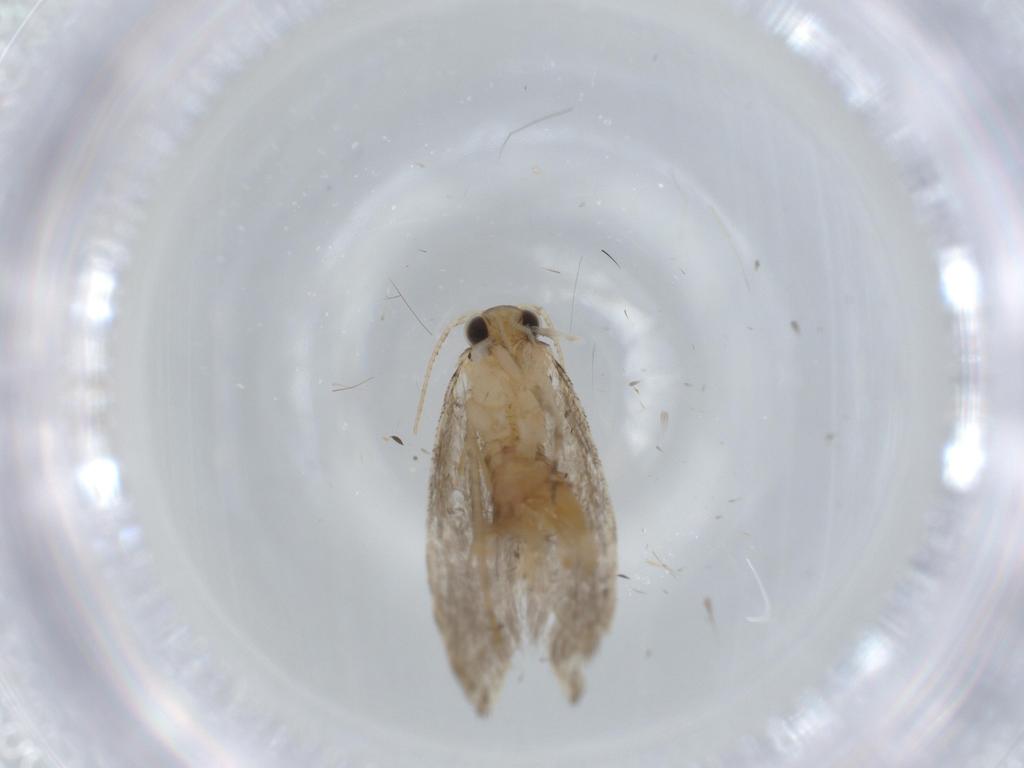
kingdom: Animalia
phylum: Arthropoda
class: Insecta
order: Lepidoptera
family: Tineidae
